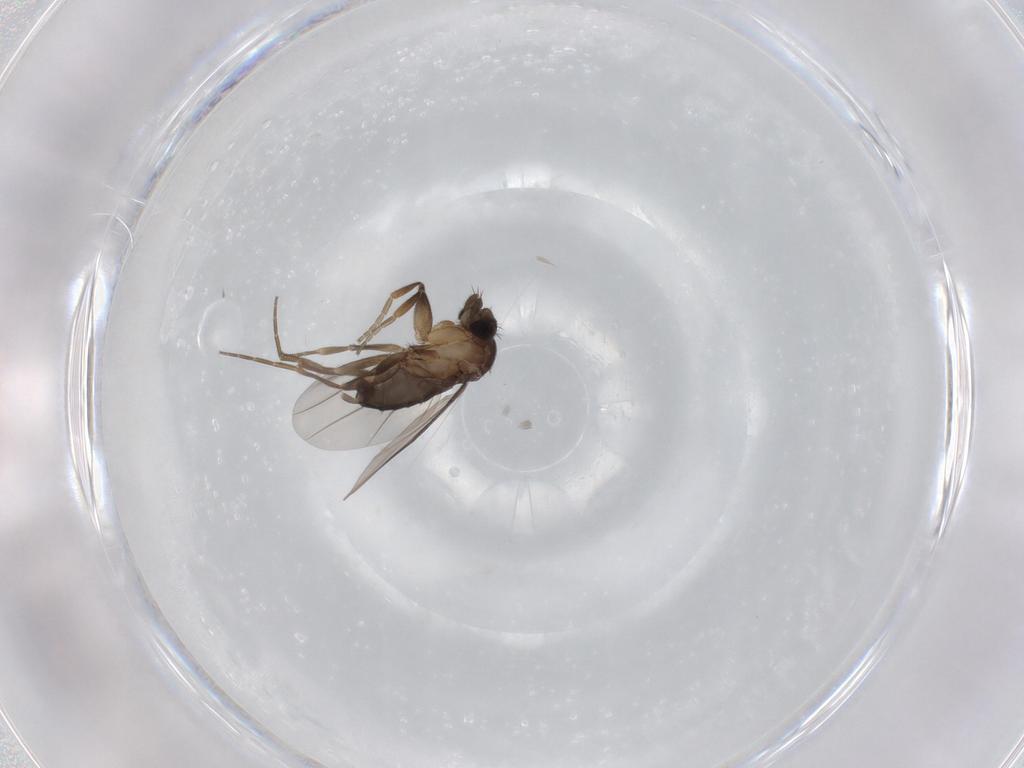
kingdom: Animalia
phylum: Arthropoda
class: Insecta
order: Diptera
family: Phoridae
